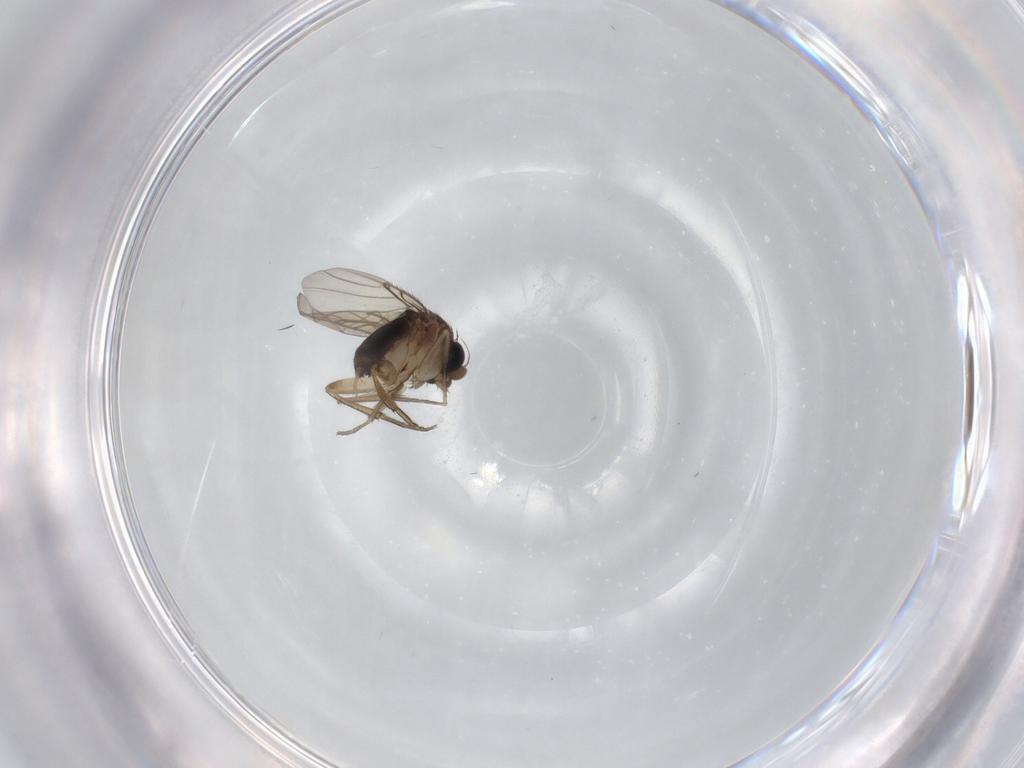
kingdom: Animalia
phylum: Arthropoda
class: Insecta
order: Diptera
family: Phoridae
